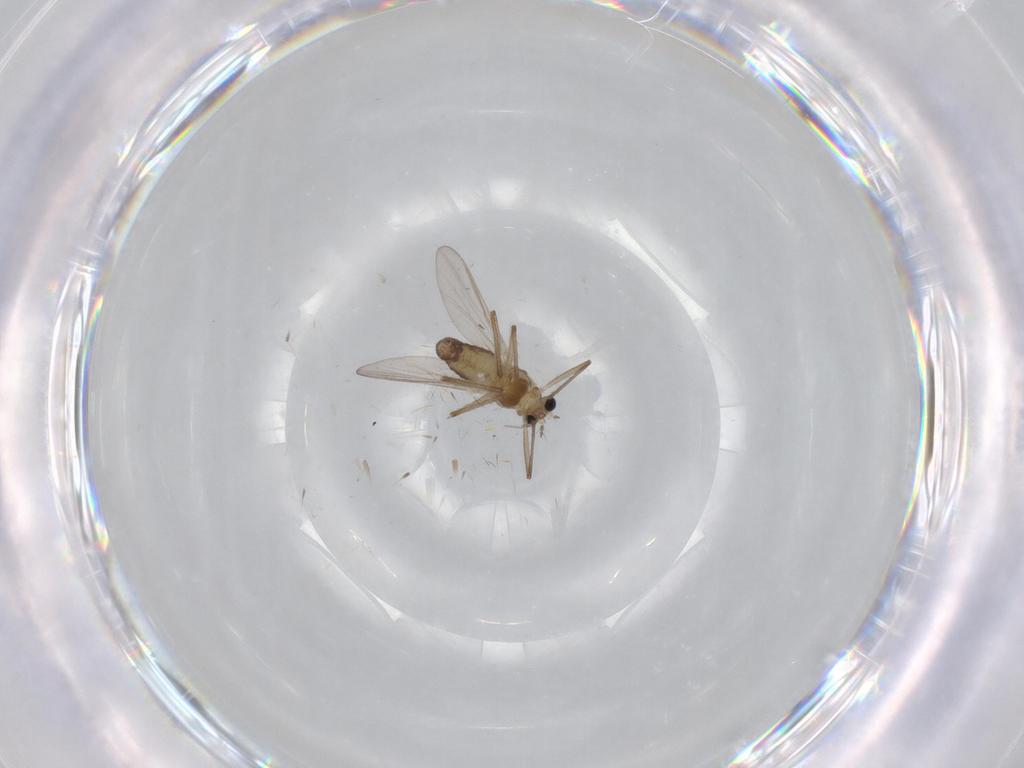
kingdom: Animalia
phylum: Arthropoda
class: Insecta
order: Diptera
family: Chironomidae
